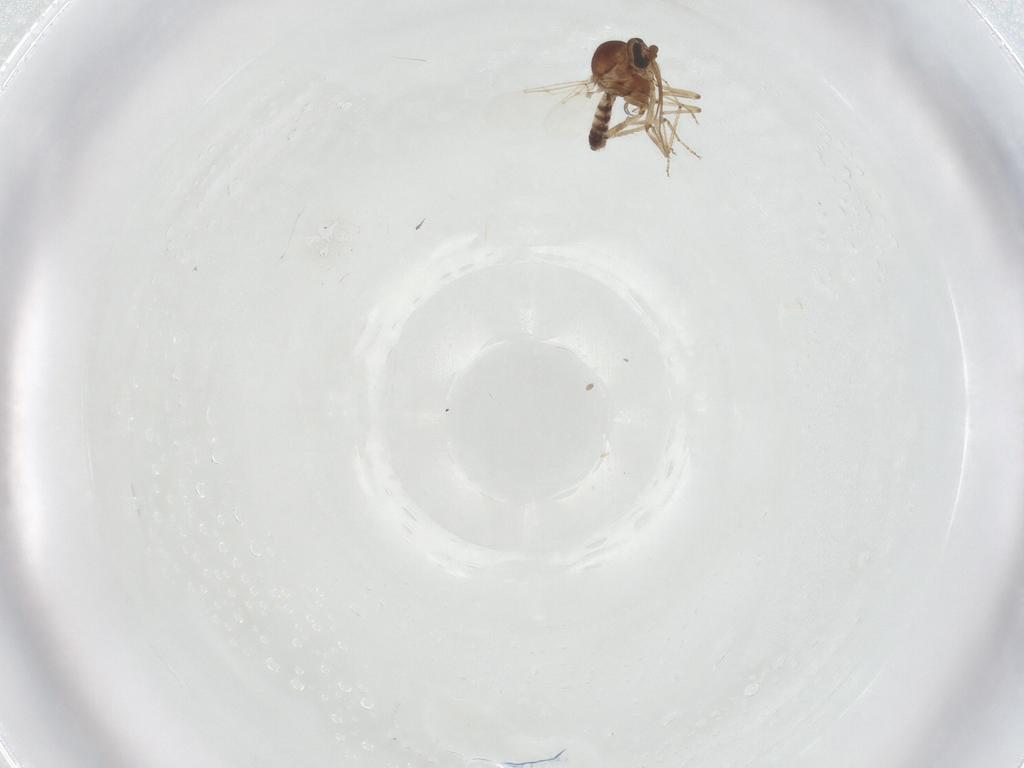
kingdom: Animalia
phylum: Arthropoda
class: Insecta
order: Diptera
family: Ceratopogonidae
